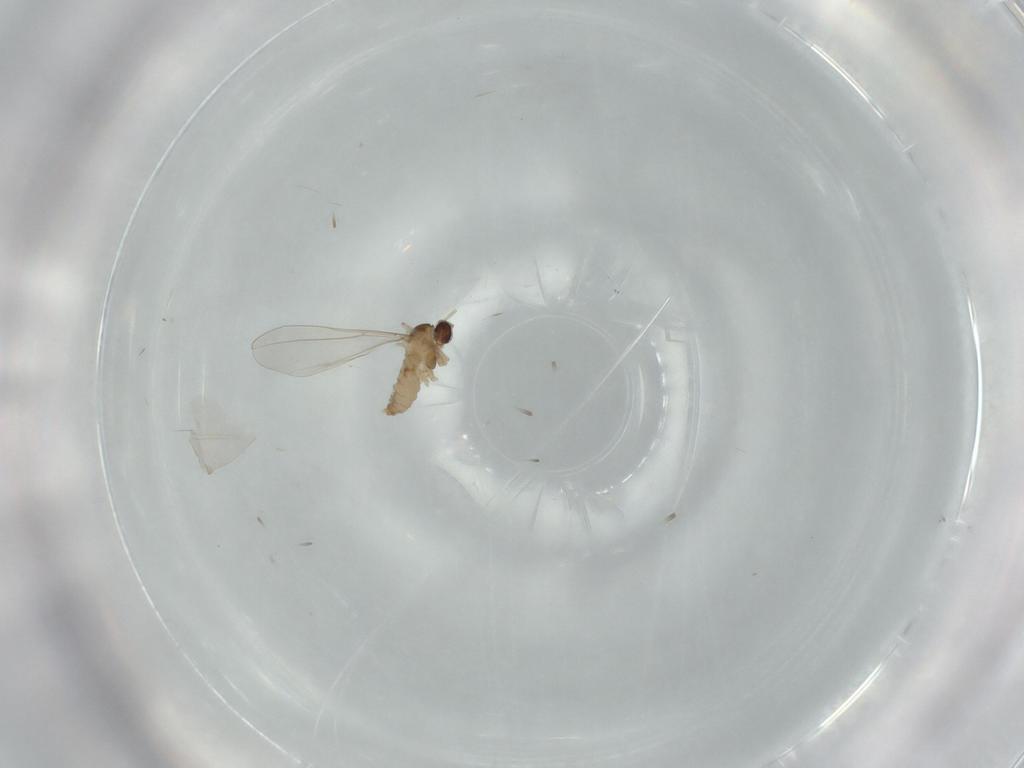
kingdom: Animalia
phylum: Arthropoda
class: Insecta
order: Diptera
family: Cecidomyiidae
